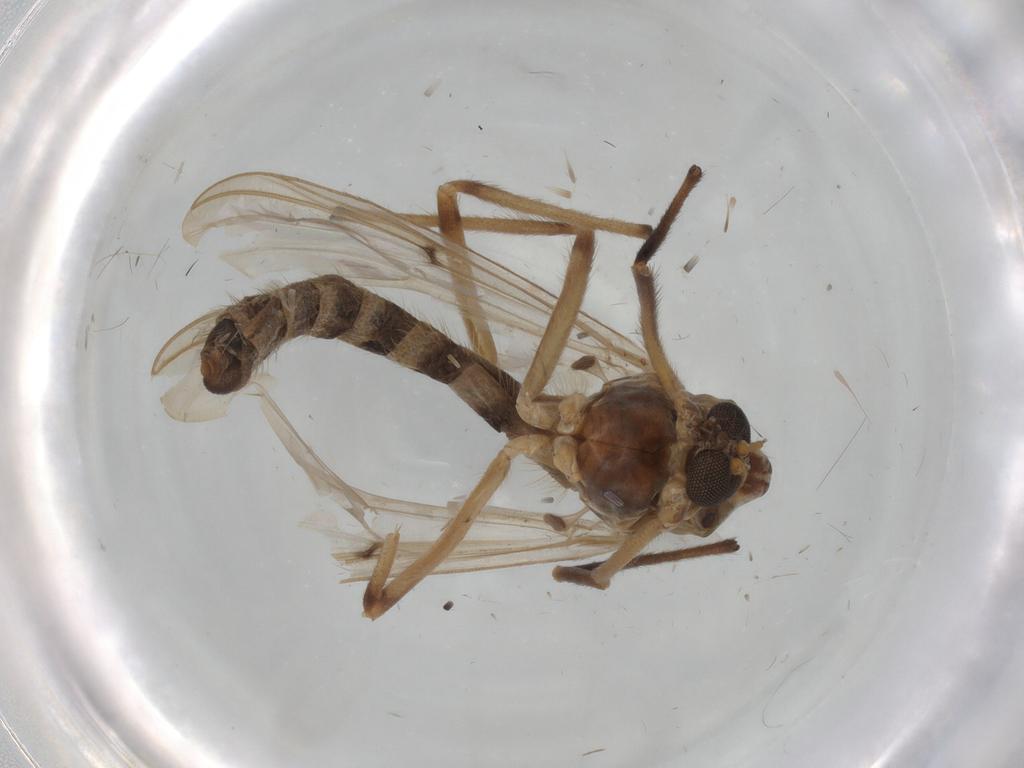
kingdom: Animalia
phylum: Arthropoda
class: Insecta
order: Diptera
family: Chironomidae
